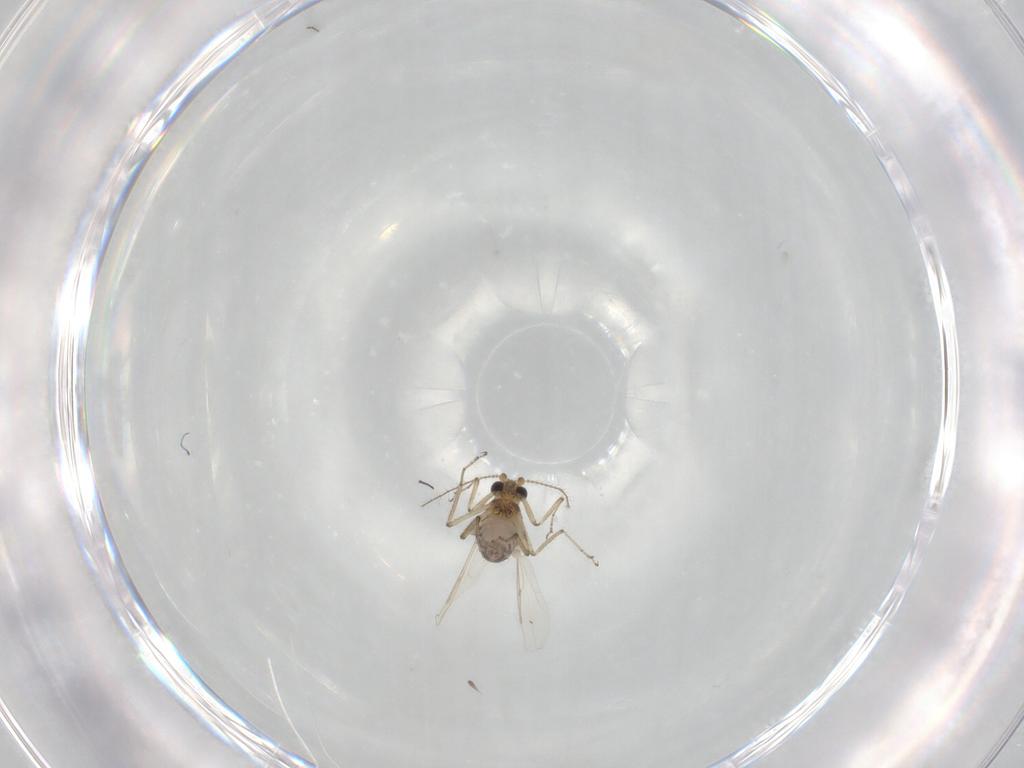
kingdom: Animalia
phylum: Arthropoda
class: Insecta
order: Diptera
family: Ceratopogonidae
